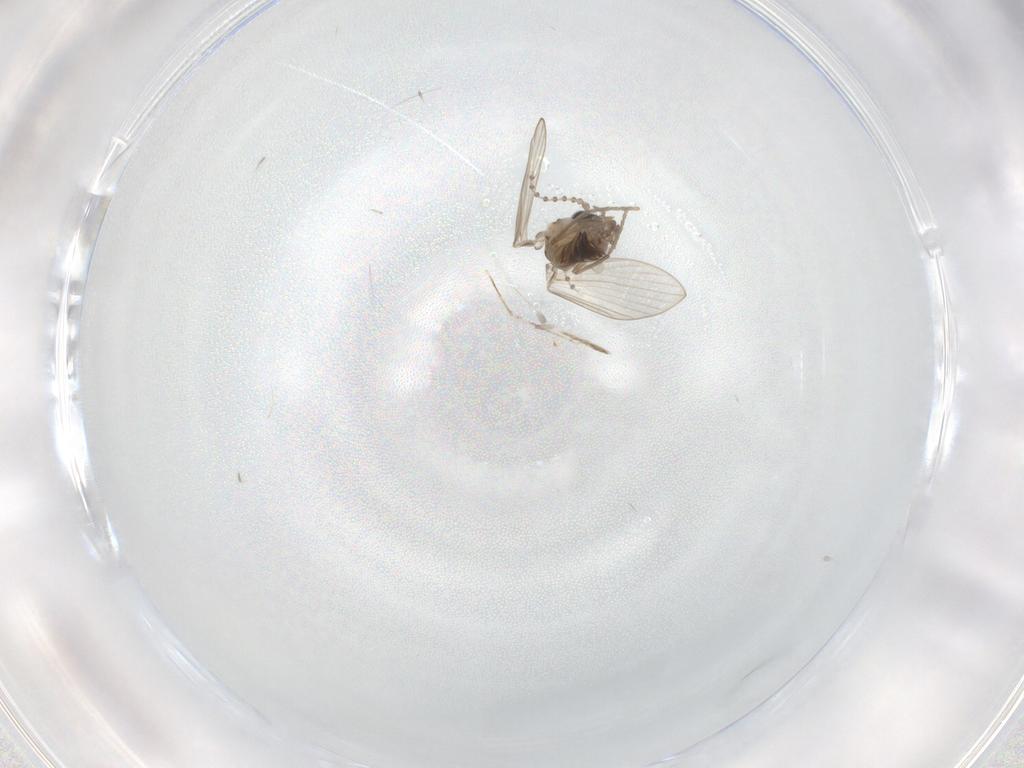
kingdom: Animalia
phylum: Arthropoda
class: Insecta
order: Diptera
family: Psychodidae
